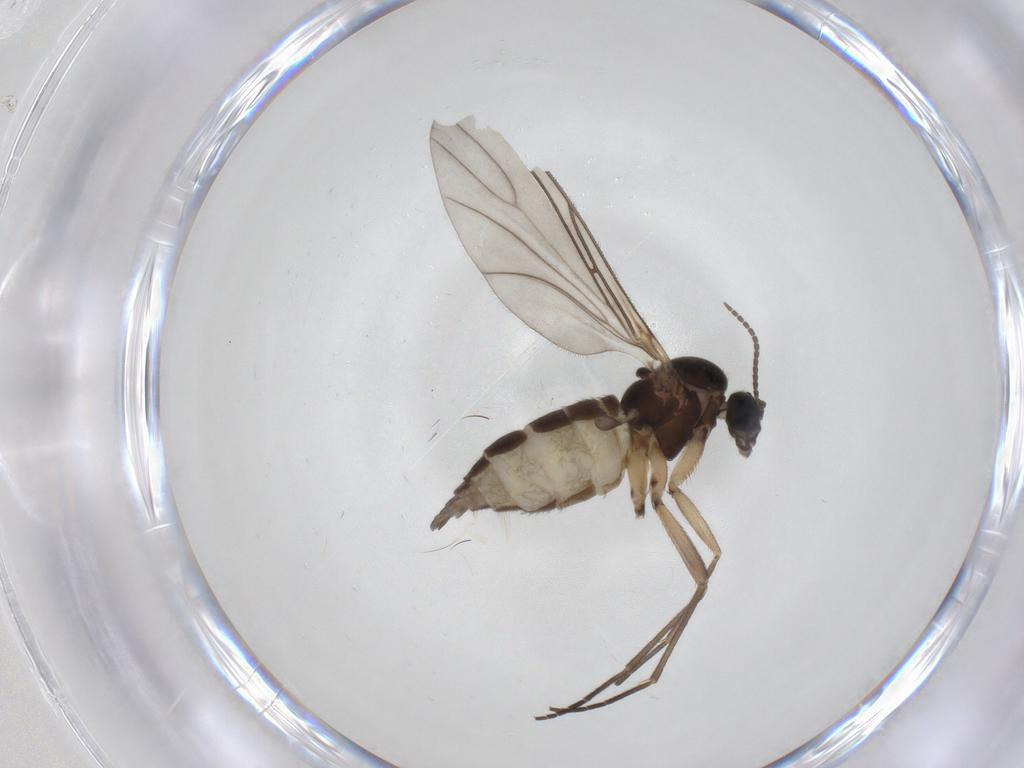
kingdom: Animalia
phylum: Arthropoda
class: Insecta
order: Diptera
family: Sciaridae
